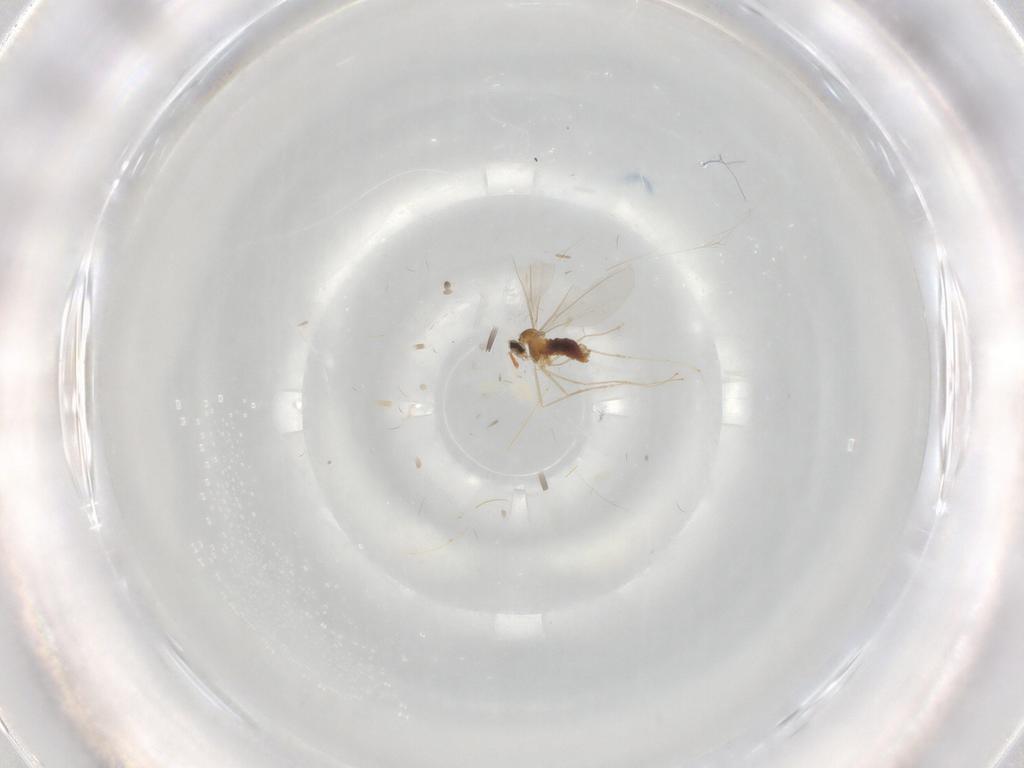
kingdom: Animalia
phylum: Arthropoda
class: Insecta
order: Diptera
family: Cecidomyiidae
